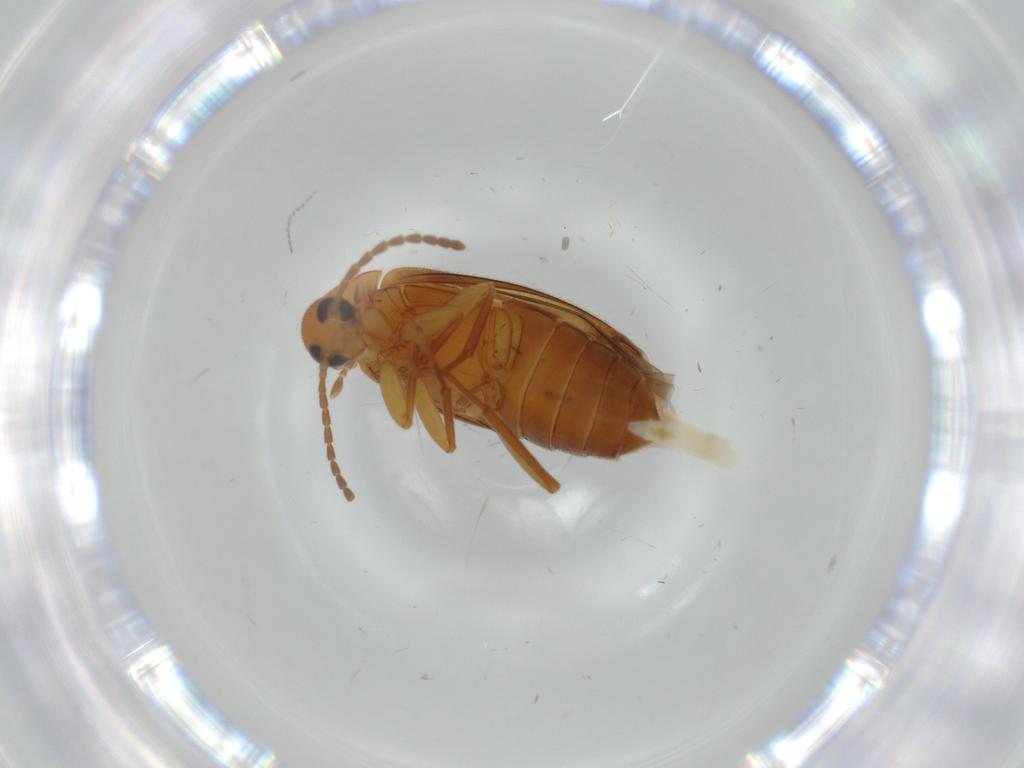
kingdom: Animalia
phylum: Arthropoda
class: Insecta
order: Coleoptera
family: Scraptiidae
